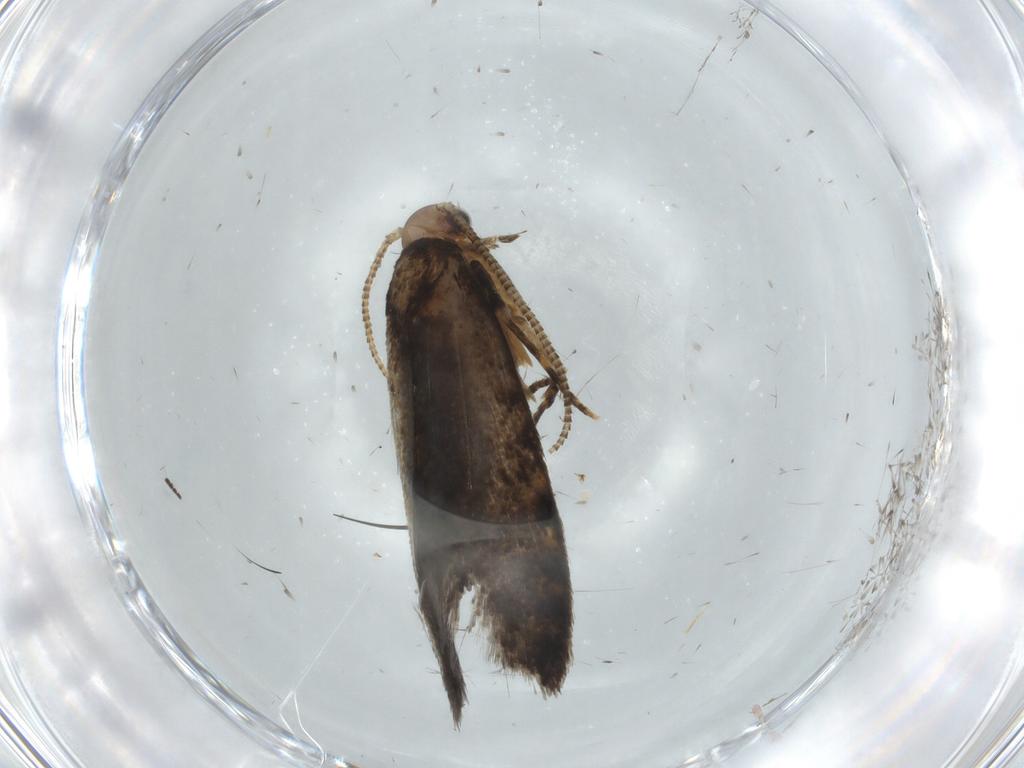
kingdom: Animalia
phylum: Arthropoda
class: Insecta
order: Lepidoptera
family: Tineidae
